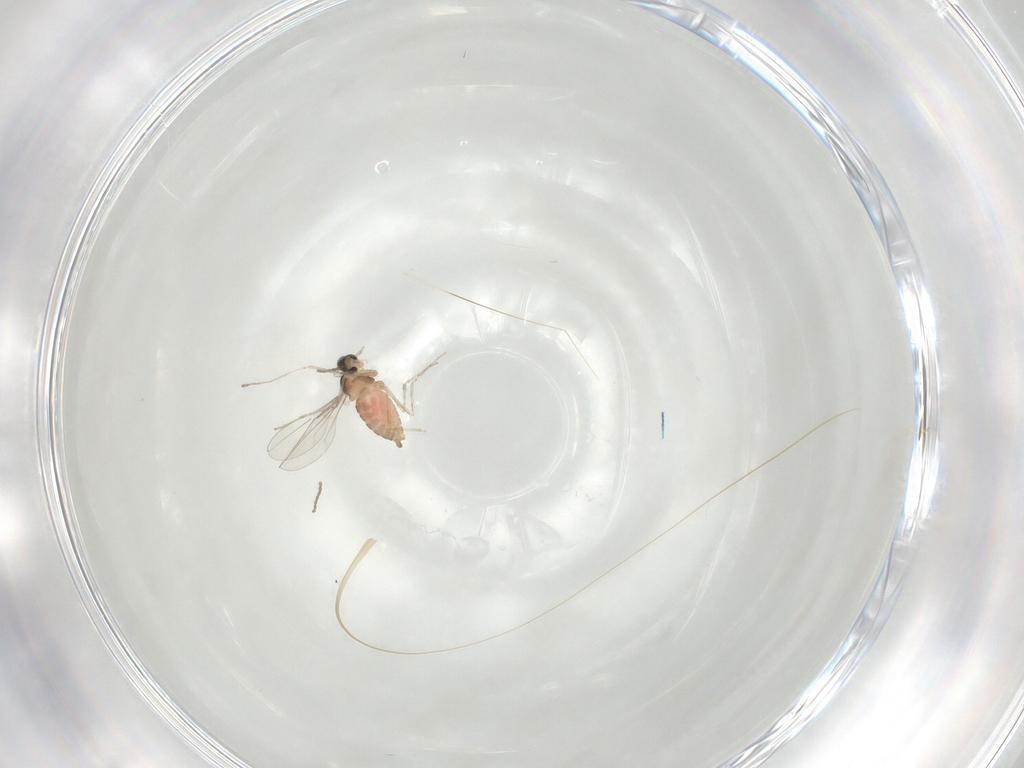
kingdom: Animalia
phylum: Arthropoda
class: Insecta
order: Diptera
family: Cecidomyiidae
